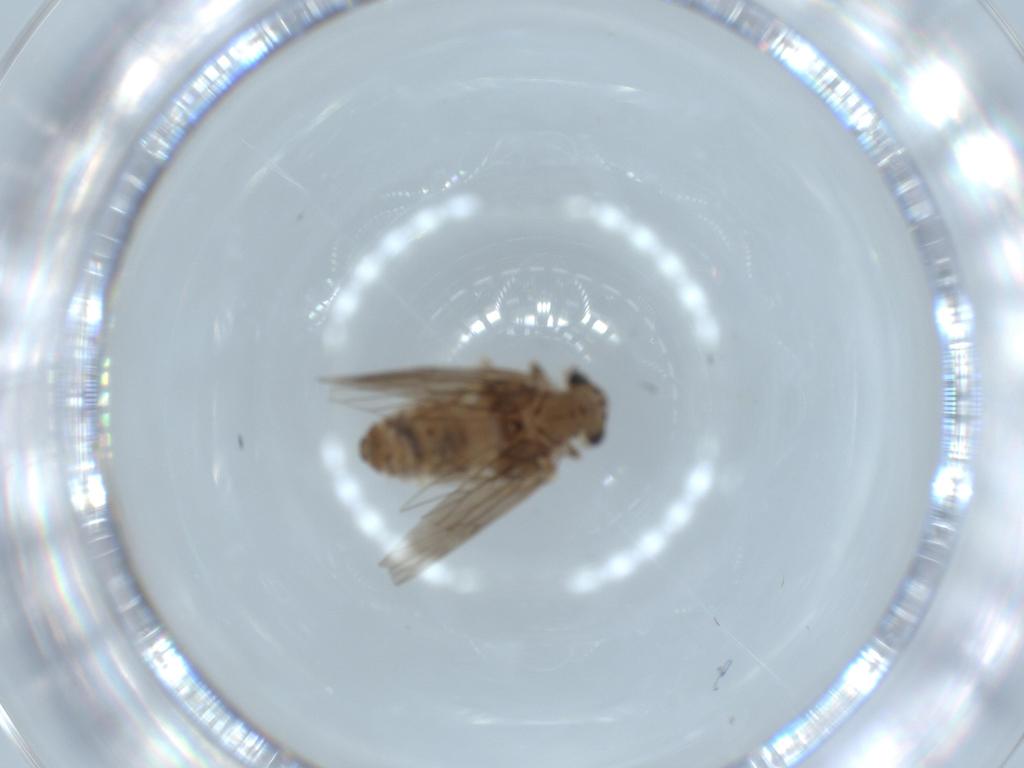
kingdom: Animalia
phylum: Arthropoda
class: Insecta
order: Psocodea
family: Lepidopsocidae
